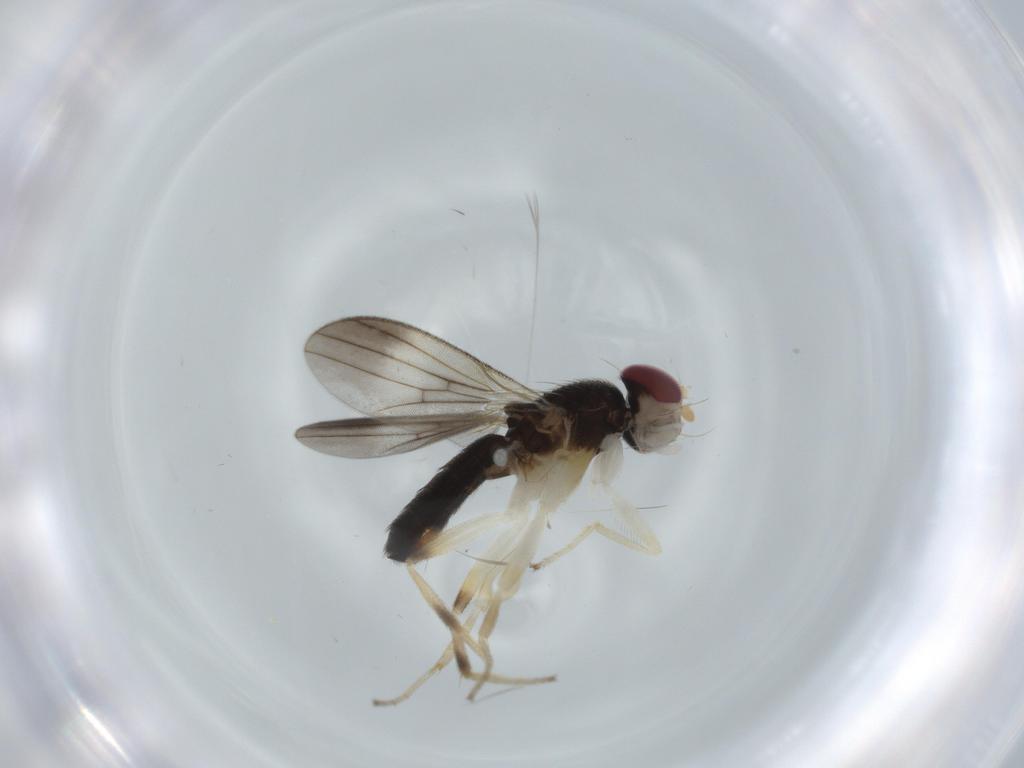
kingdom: Animalia
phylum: Arthropoda
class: Insecta
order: Diptera
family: Clusiidae
